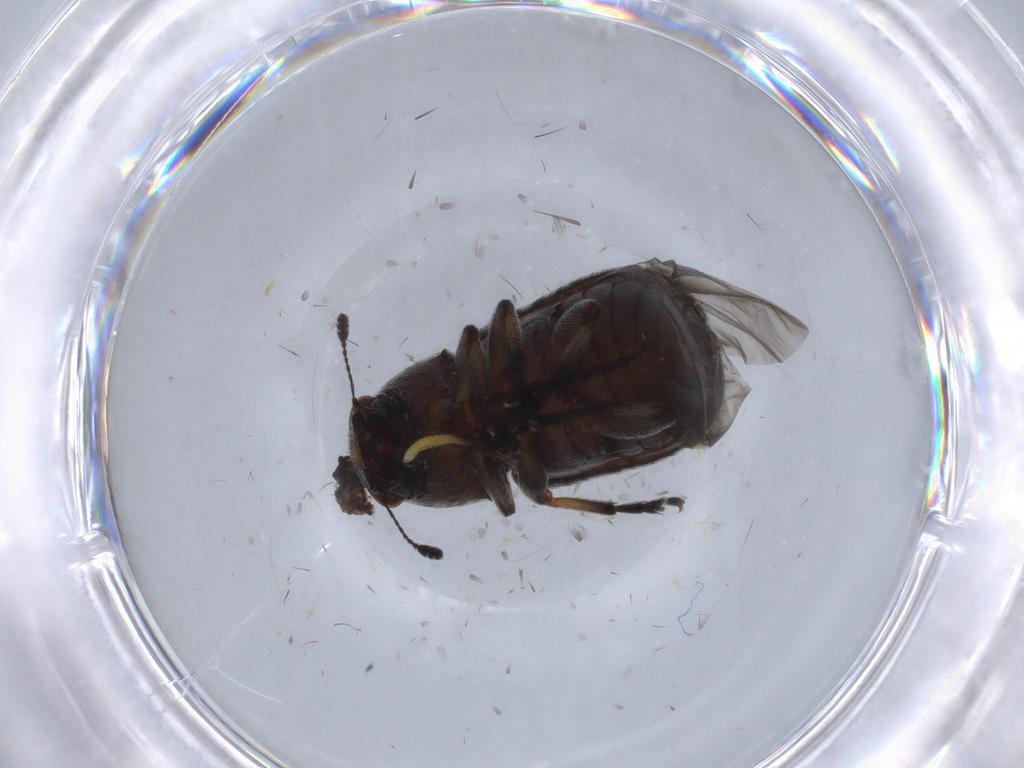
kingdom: Animalia
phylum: Arthropoda
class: Insecta
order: Coleoptera
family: Anthribidae
